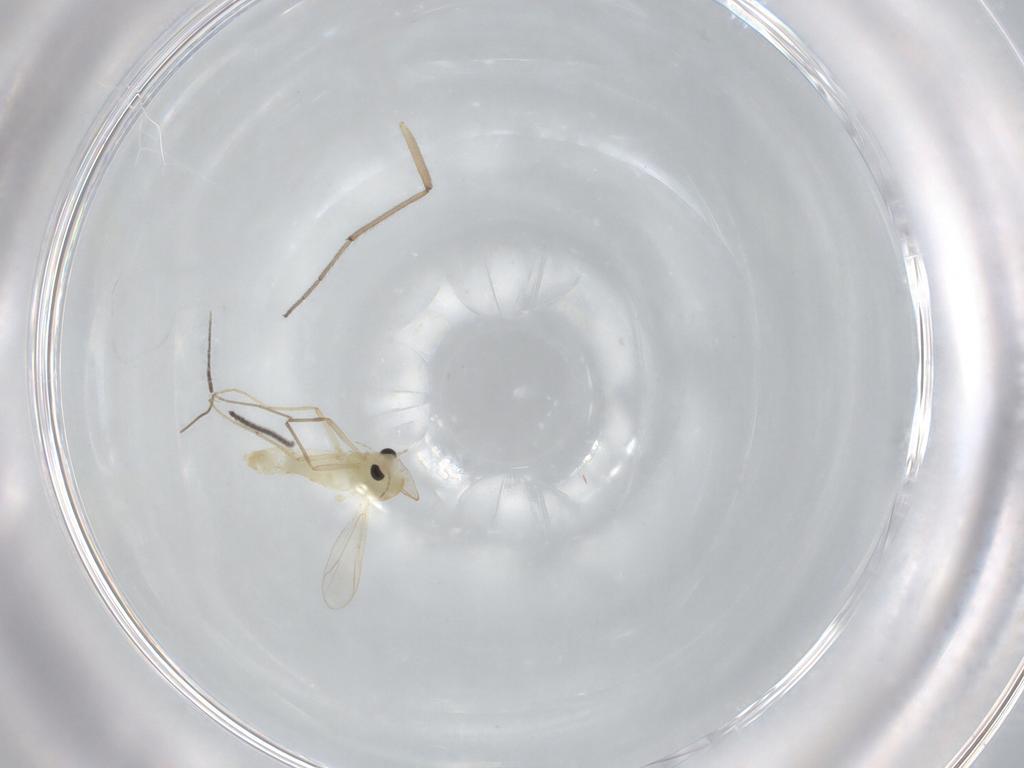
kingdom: Animalia
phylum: Arthropoda
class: Insecta
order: Diptera
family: Chironomidae
